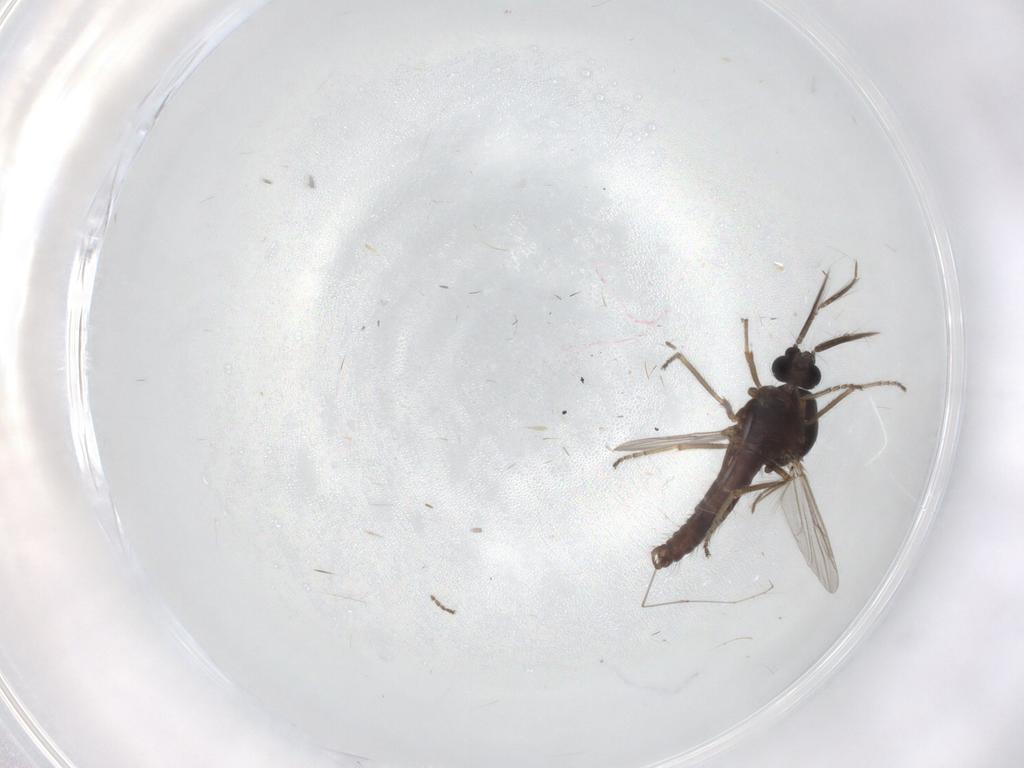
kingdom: Animalia
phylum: Arthropoda
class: Insecta
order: Diptera
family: Ceratopogonidae
